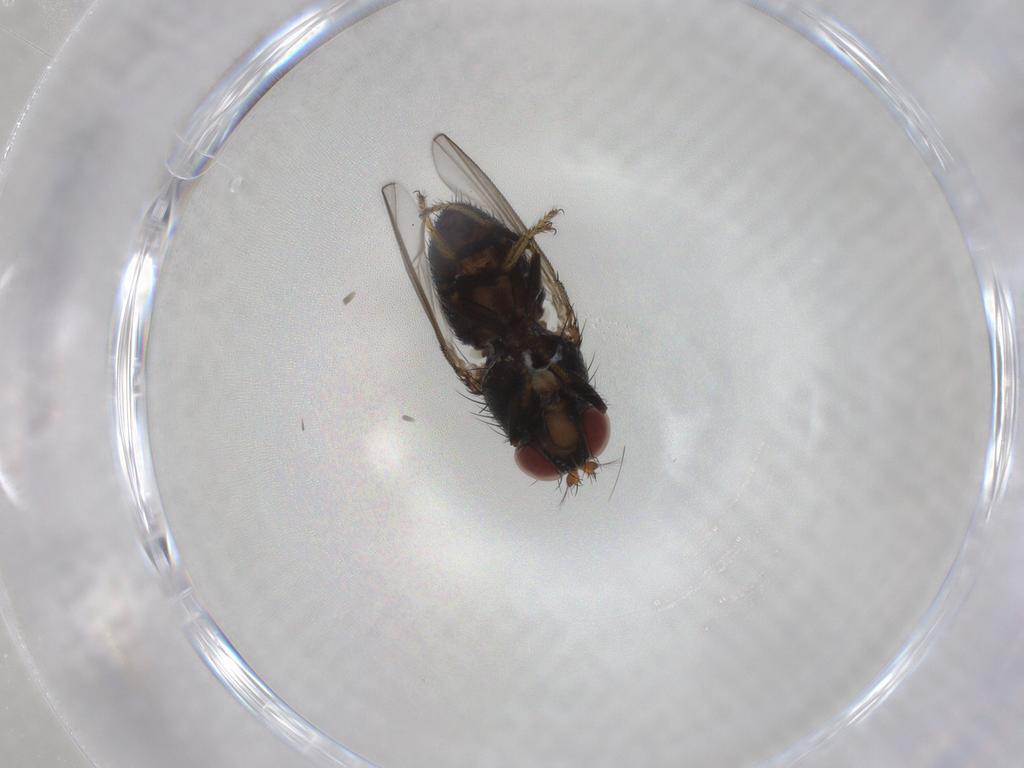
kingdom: Animalia
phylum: Arthropoda
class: Insecta
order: Diptera
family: Ephydridae
